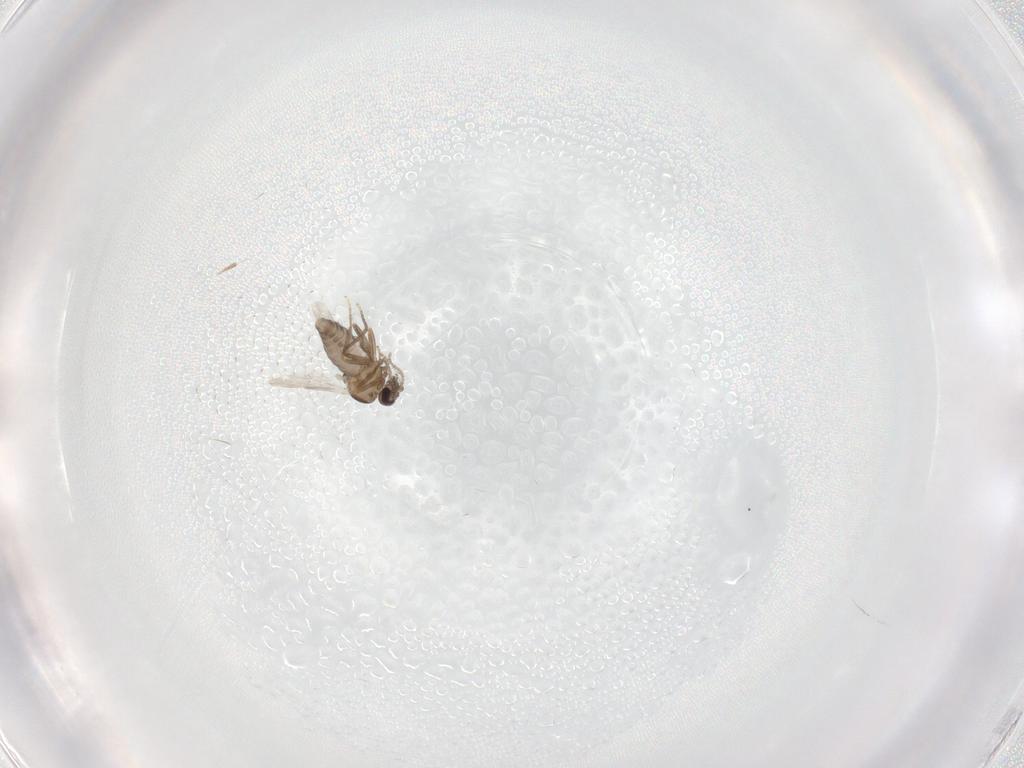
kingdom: Animalia
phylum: Arthropoda
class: Insecta
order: Diptera
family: Ceratopogonidae
